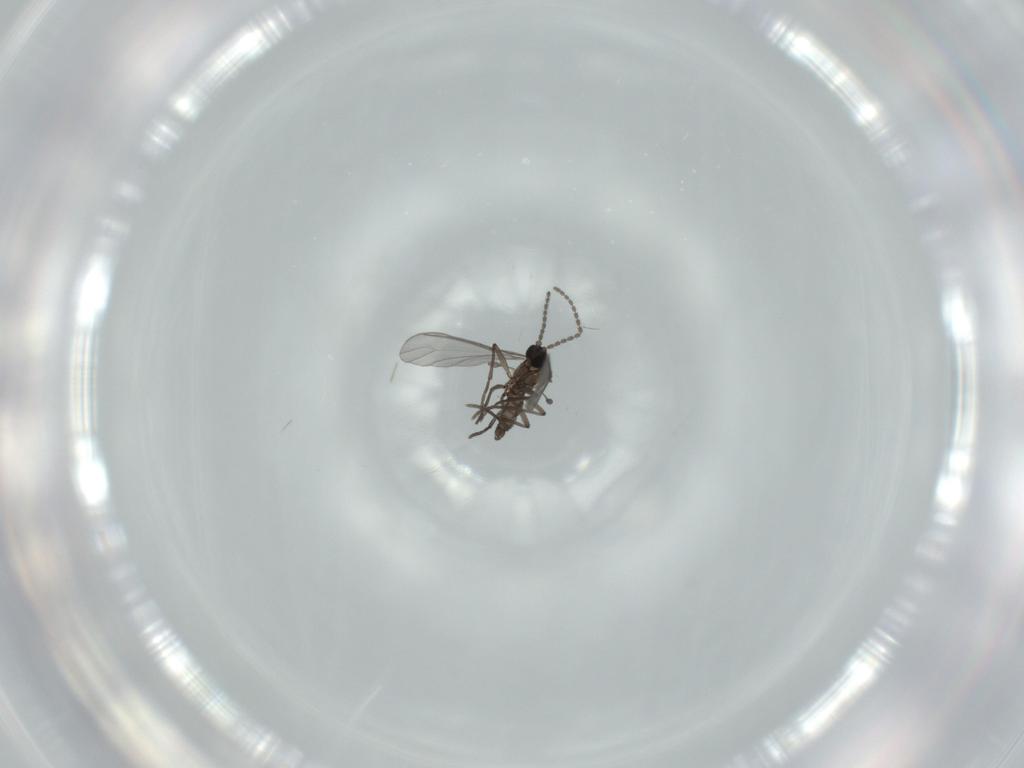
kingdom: Animalia
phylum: Arthropoda
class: Insecta
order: Diptera
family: Sciaridae
